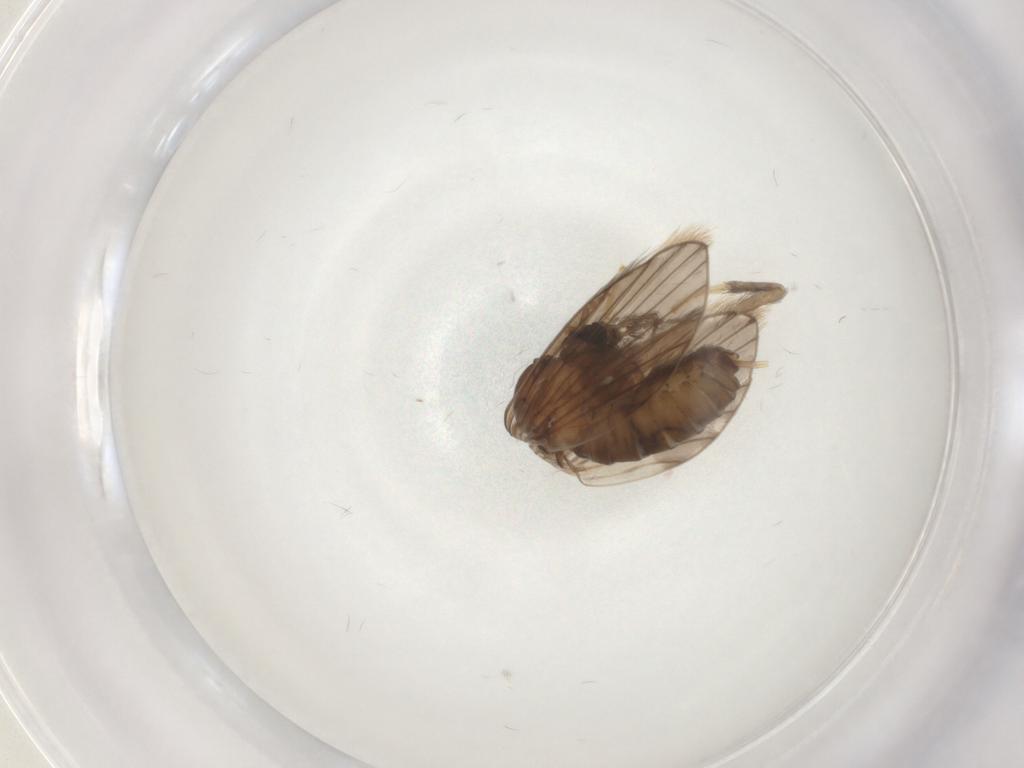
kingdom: Animalia
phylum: Arthropoda
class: Insecta
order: Diptera
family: Psychodidae
